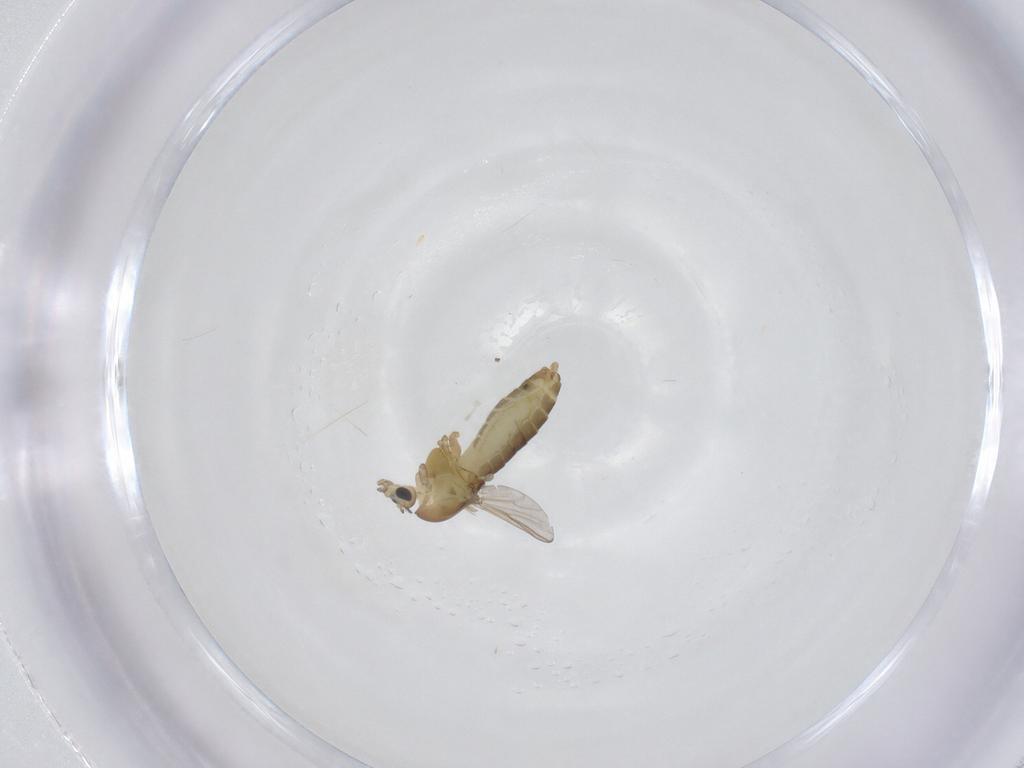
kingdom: Animalia
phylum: Arthropoda
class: Insecta
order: Diptera
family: Chironomidae
